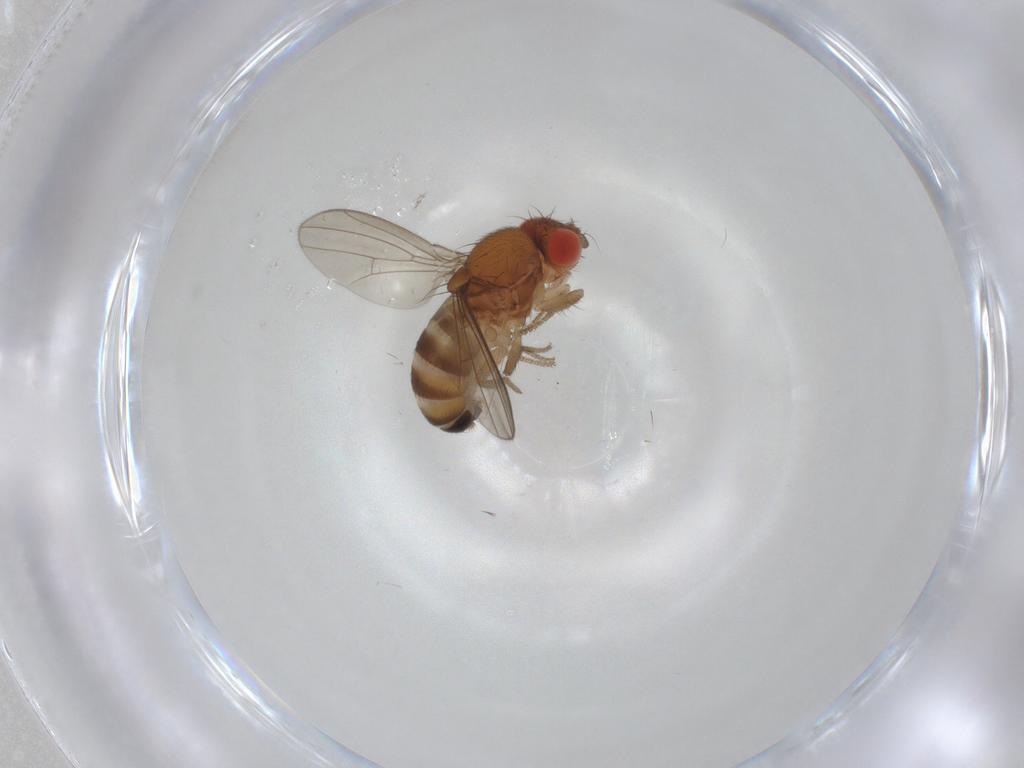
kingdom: Animalia
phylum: Arthropoda
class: Insecta
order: Diptera
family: Drosophilidae
